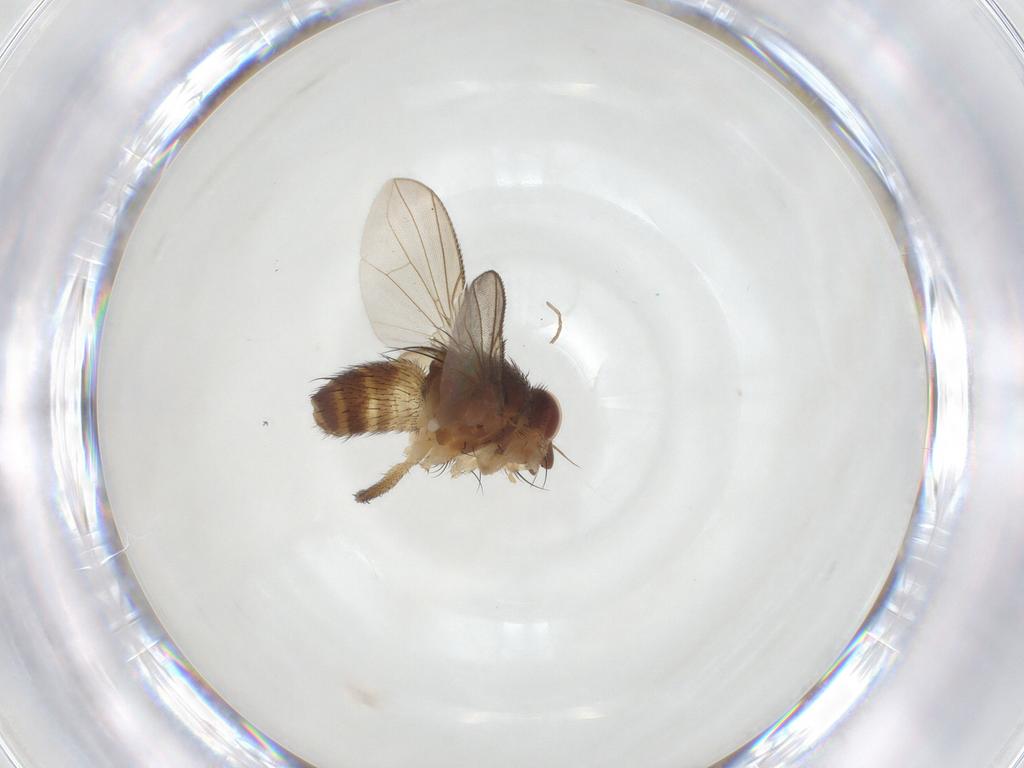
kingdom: Animalia
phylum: Arthropoda
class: Insecta
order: Diptera
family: Tachinidae
